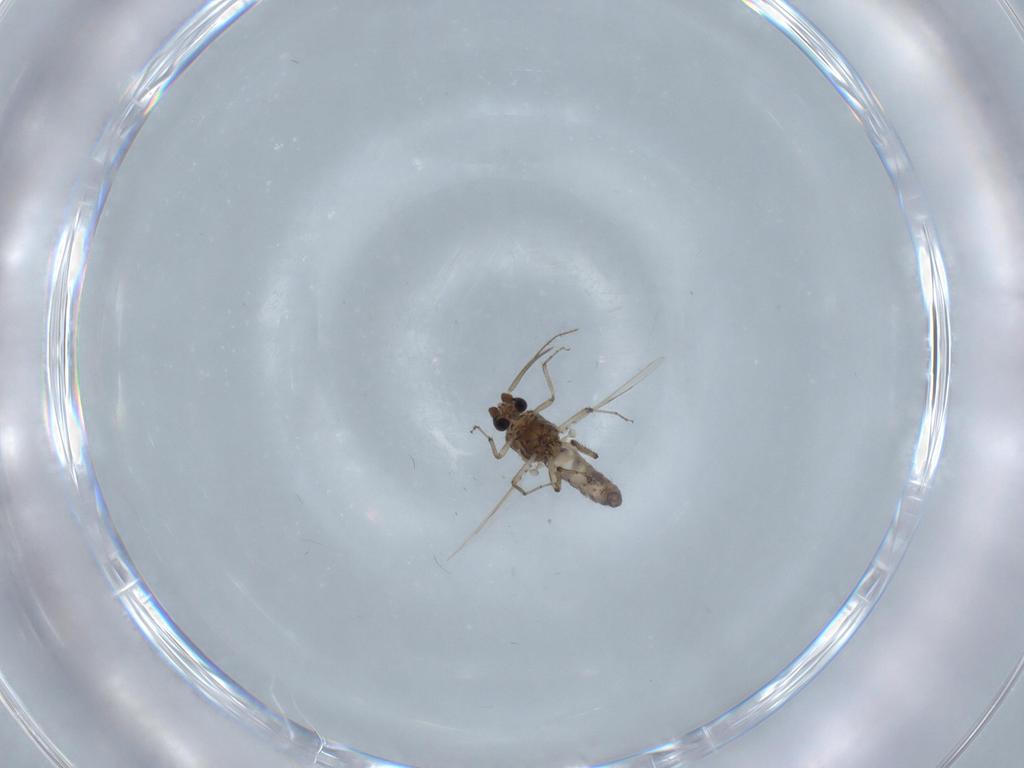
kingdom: Animalia
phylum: Arthropoda
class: Insecta
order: Diptera
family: Ceratopogonidae
